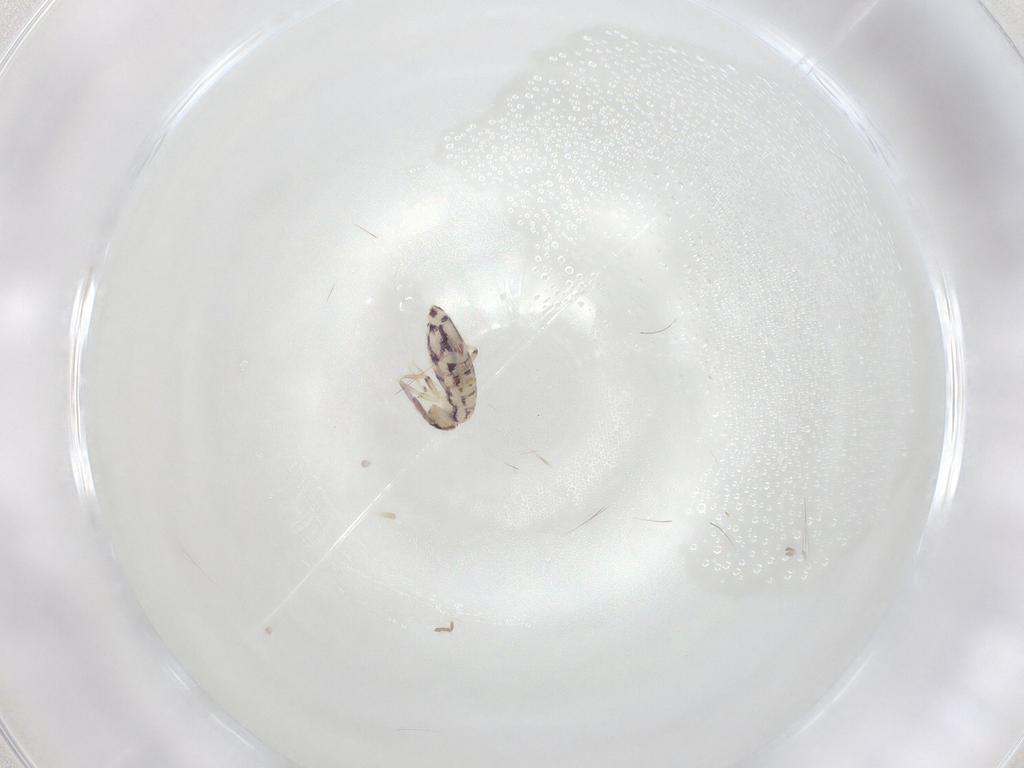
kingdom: Animalia
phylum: Arthropoda
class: Collembola
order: Entomobryomorpha
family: Entomobryidae
